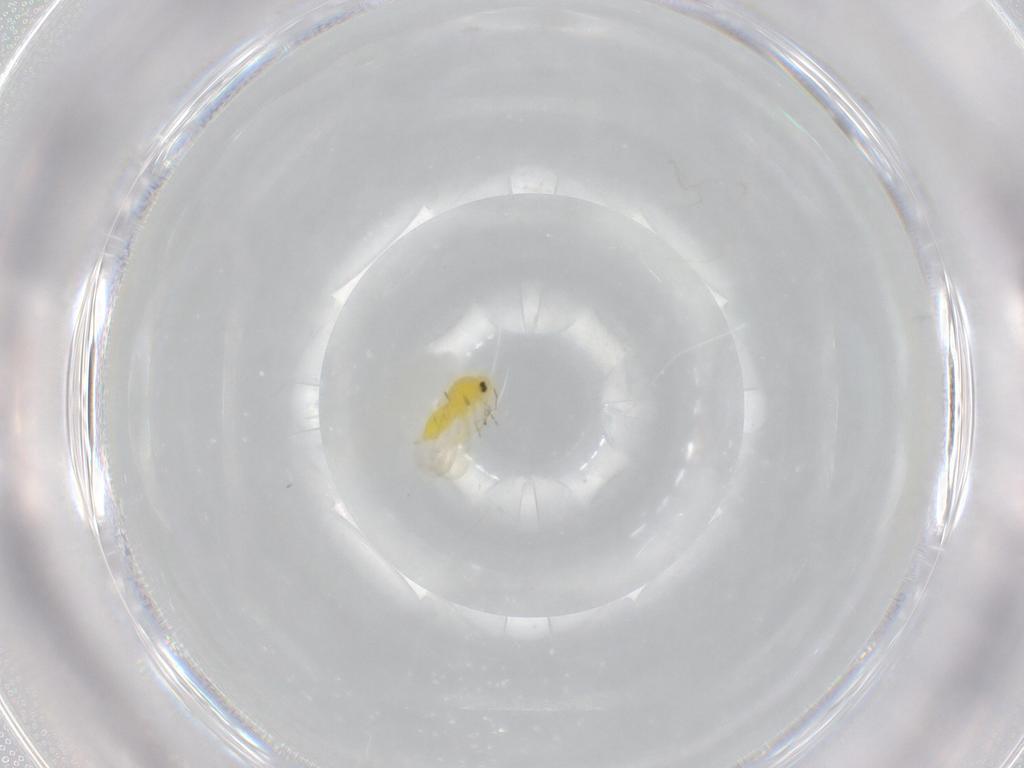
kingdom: Animalia
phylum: Arthropoda
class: Insecta
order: Hemiptera
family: Aleyrodidae
